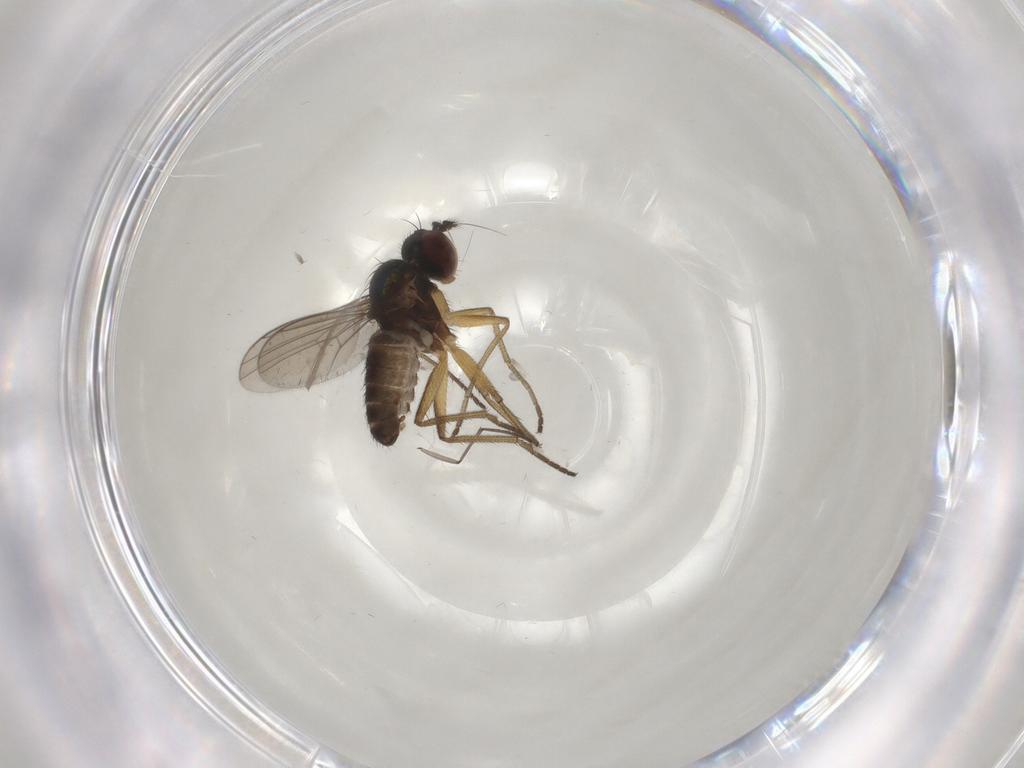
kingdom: Animalia
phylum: Arthropoda
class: Insecta
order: Diptera
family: Dolichopodidae
